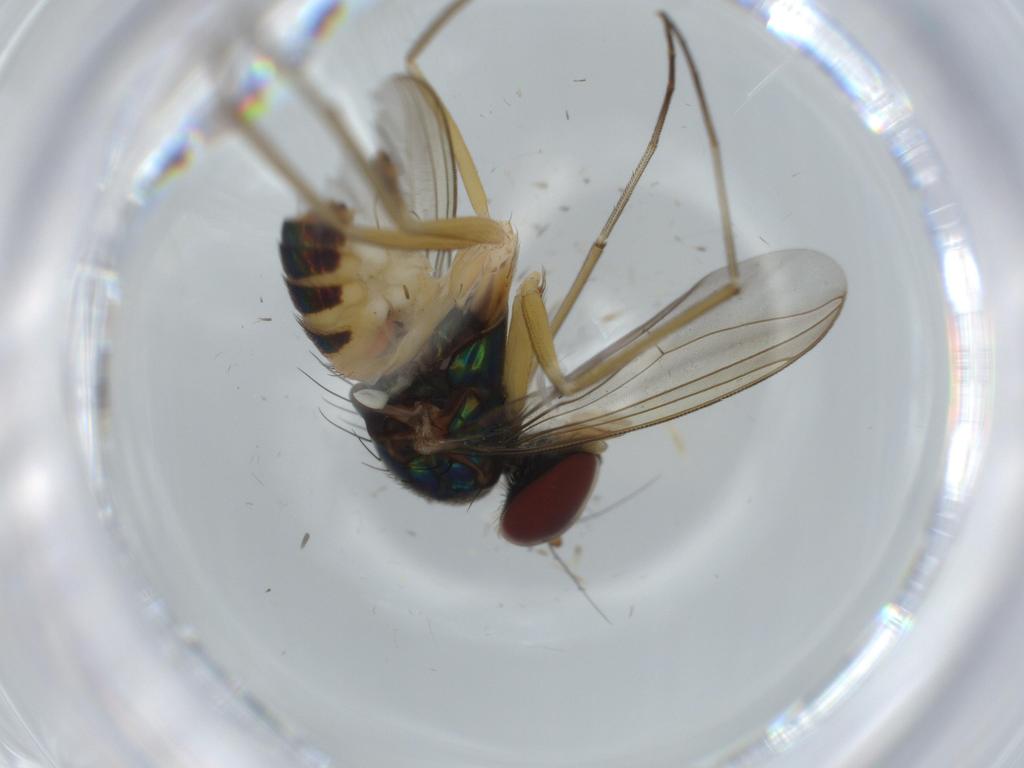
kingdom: Animalia
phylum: Arthropoda
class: Insecta
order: Diptera
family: Dolichopodidae
